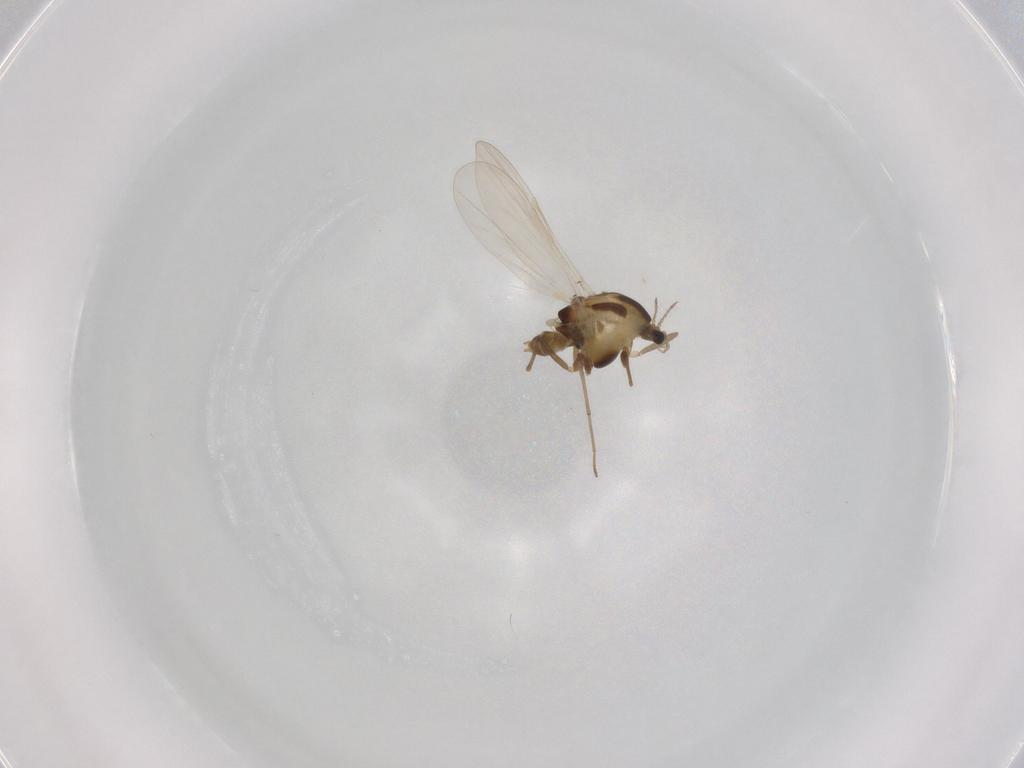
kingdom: Animalia
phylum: Arthropoda
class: Insecta
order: Diptera
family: Chironomidae
